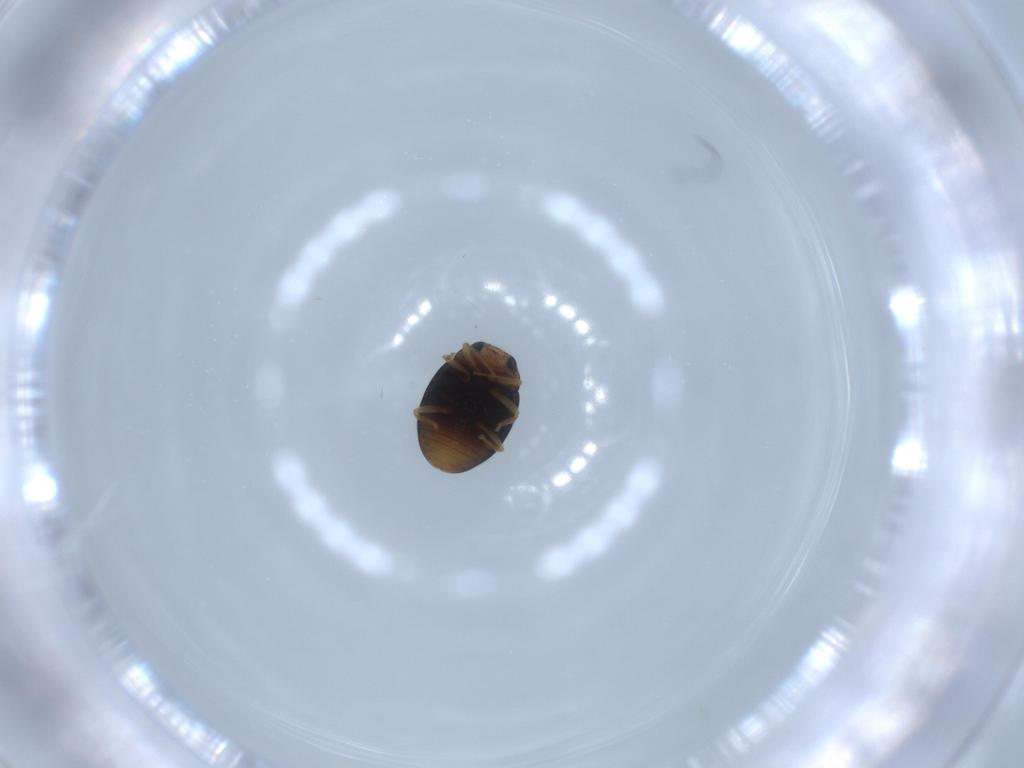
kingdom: Animalia
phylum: Arthropoda
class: Insecta
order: Coleoptera
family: Coccinellidae
